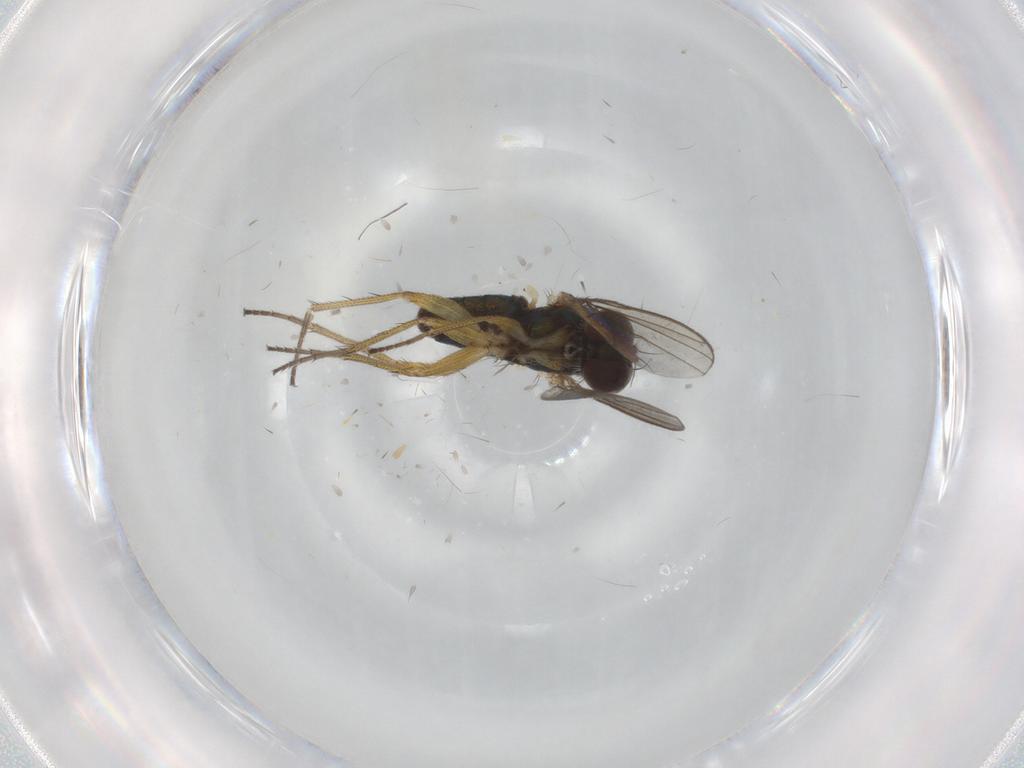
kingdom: Animalia
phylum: Arthropoda
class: Insecta
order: Diptera
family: Dolichopodidae
